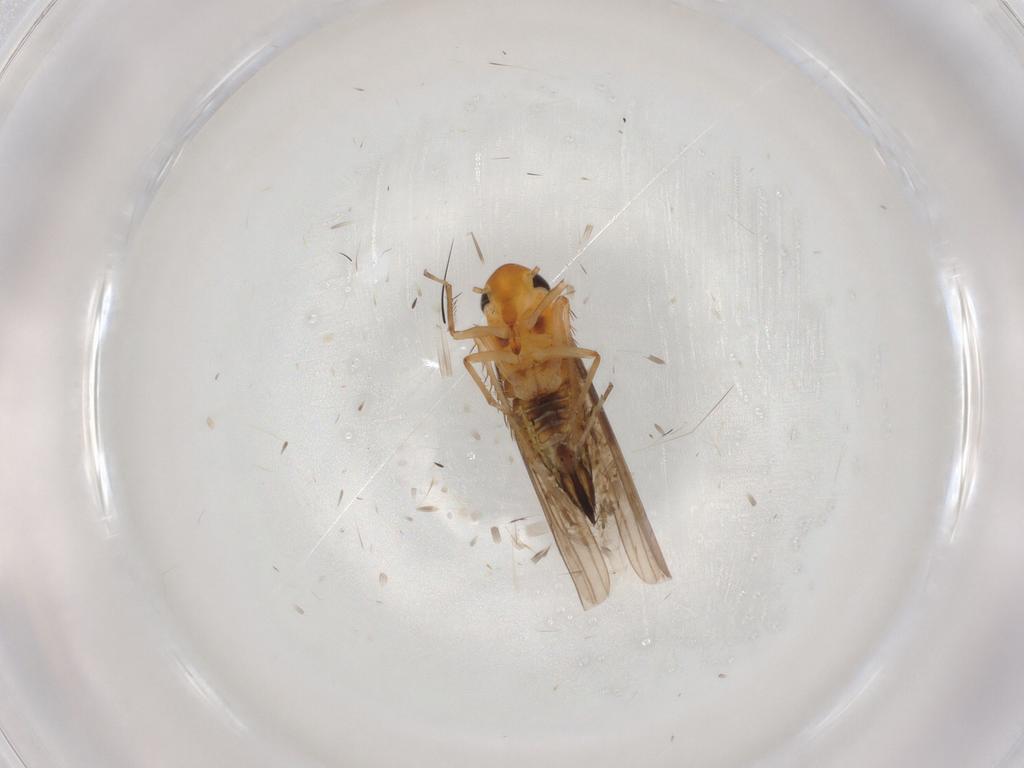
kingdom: Animalia
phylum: Arthropoda
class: Insecta
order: Hemiptera
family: Cicadellidae
